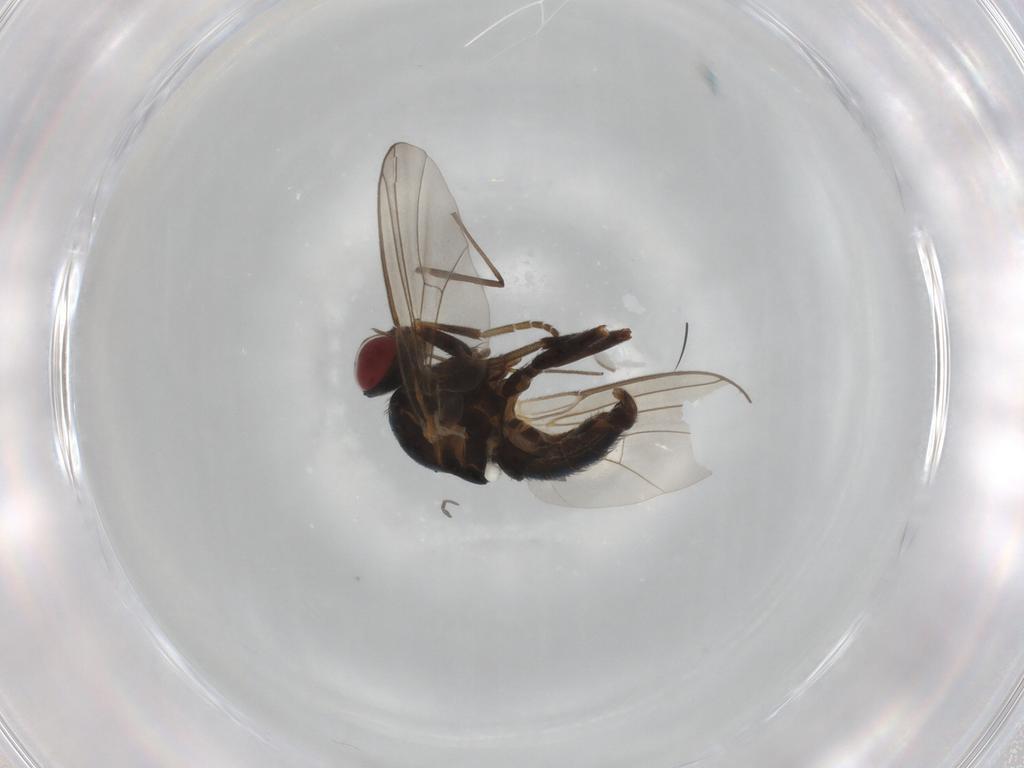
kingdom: Animalia
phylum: Arthropoda
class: Insecta
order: Diptera
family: Agromyzidae
